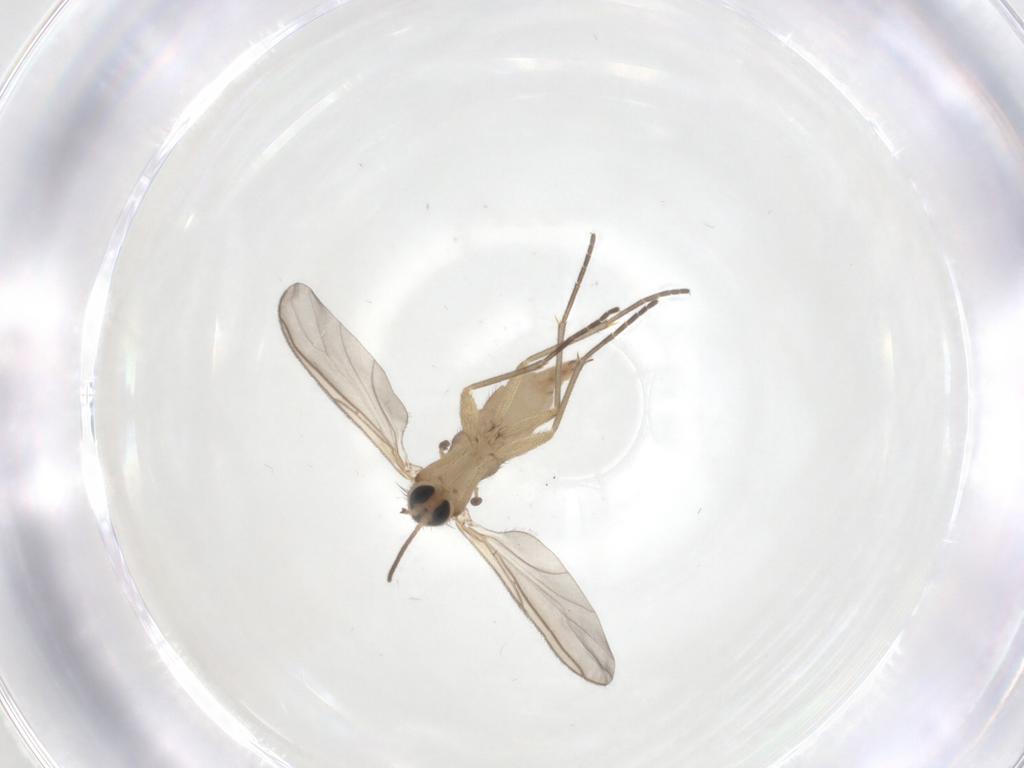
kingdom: Animalia
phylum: Arthropoda
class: Insecta
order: Diptera
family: Sciaridae
